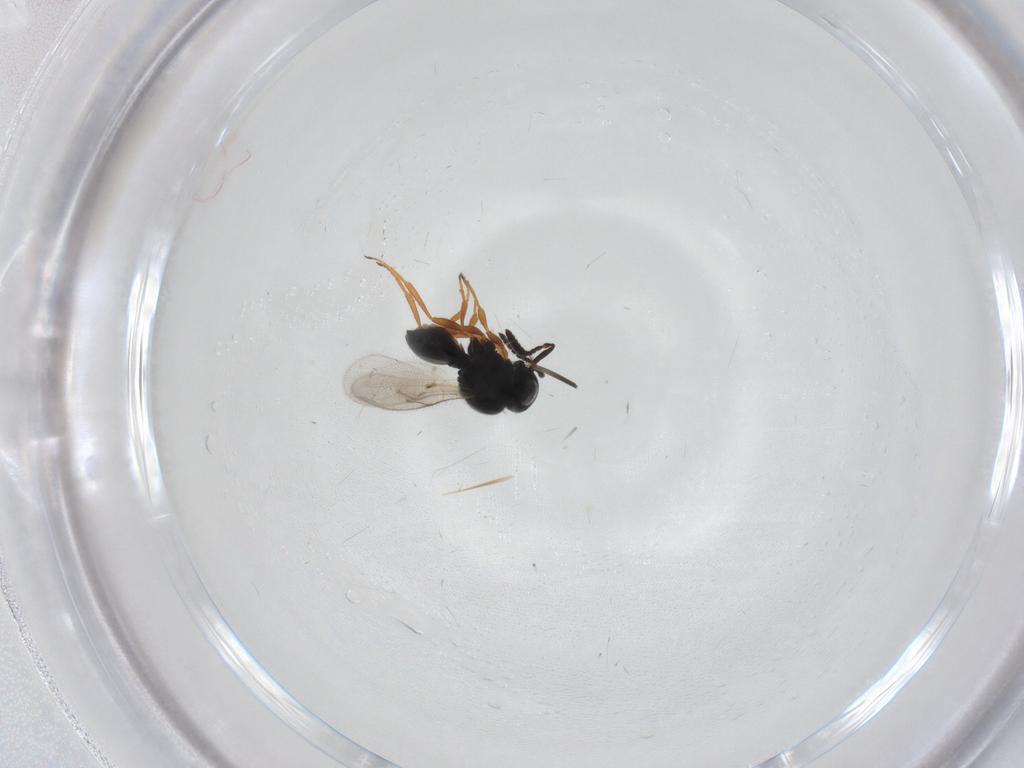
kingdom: Animalia
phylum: Arthropoda
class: Insecta
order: Hymenoptera
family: Scelionidae
